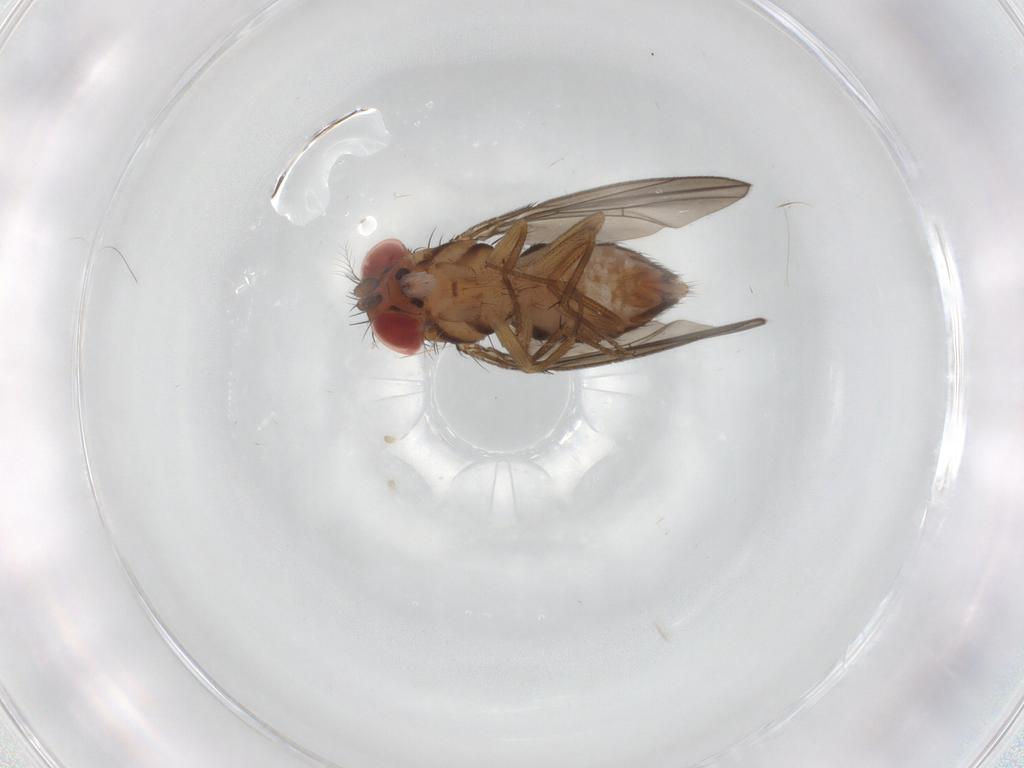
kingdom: Animalia
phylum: Arthropoda
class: Insecta
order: Diptera
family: Drosophilidae
